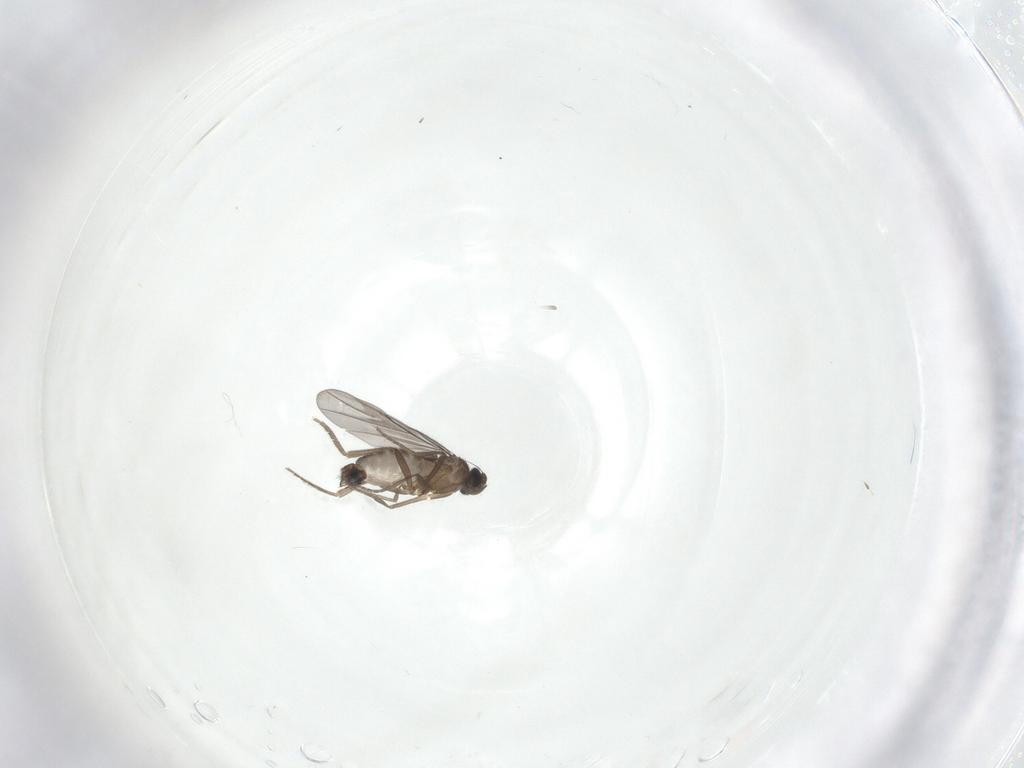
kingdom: Animalia
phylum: Arthropoda
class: Insecta
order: Diptera
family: Phoridae
